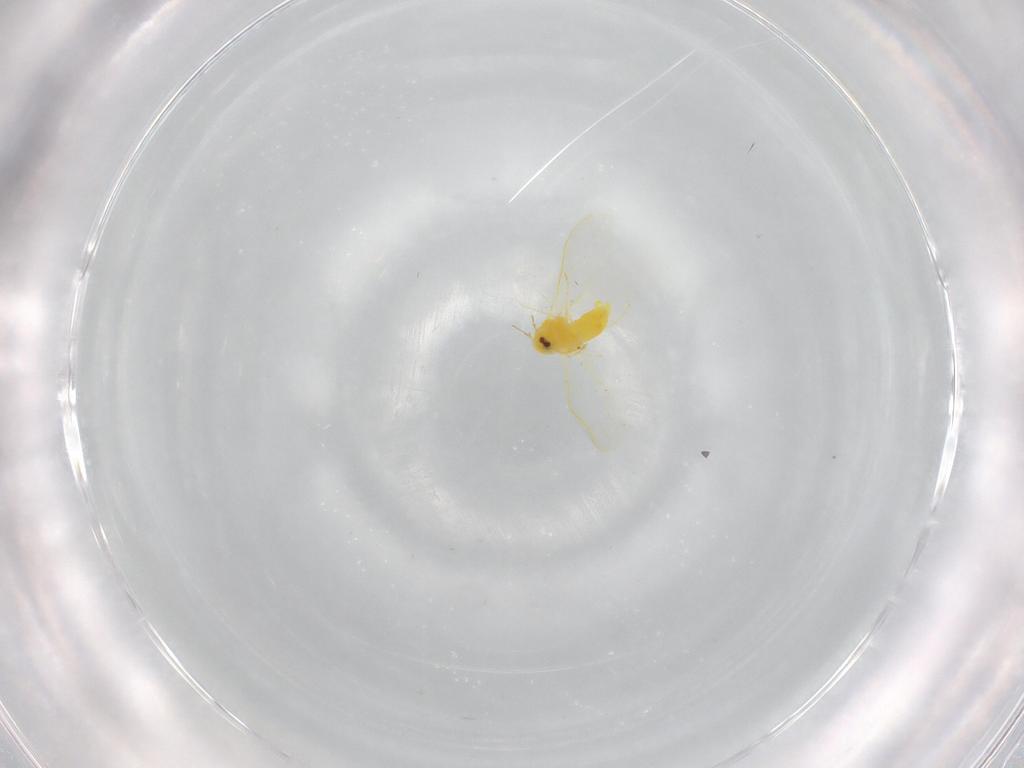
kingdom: Animalia
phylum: Arthropoda
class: Insecta
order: Hemiptera
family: Aleyrodidae
